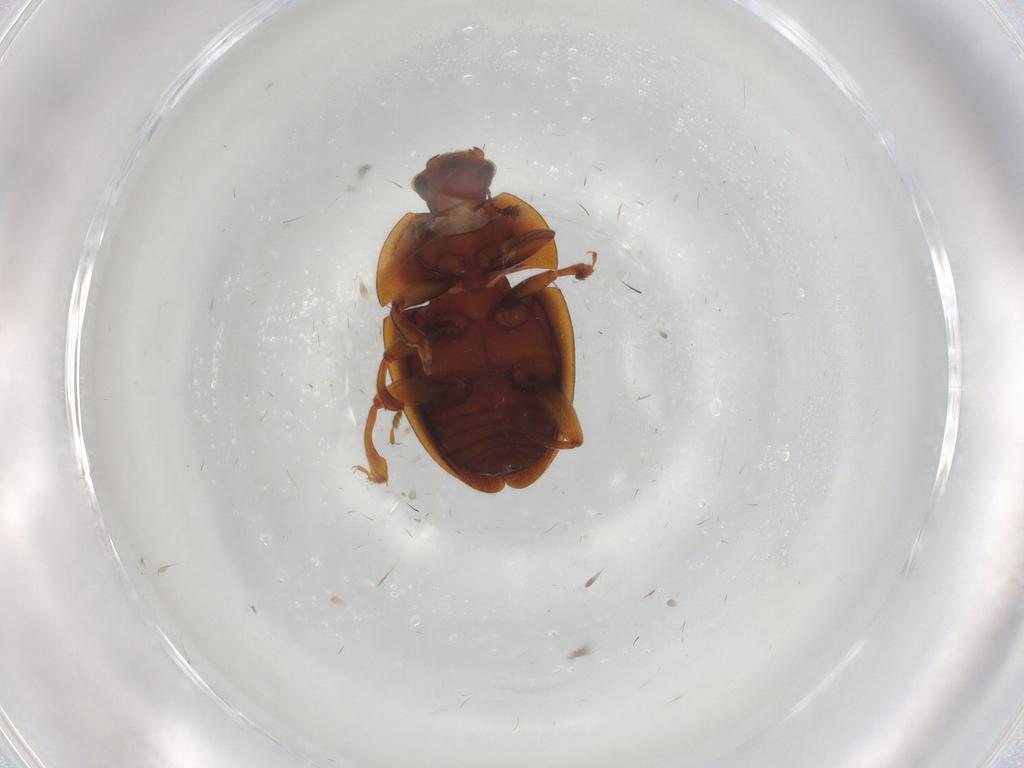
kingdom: Animalia
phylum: Arthropoda
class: Insecta
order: Coleoptera
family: Nitidulidae
